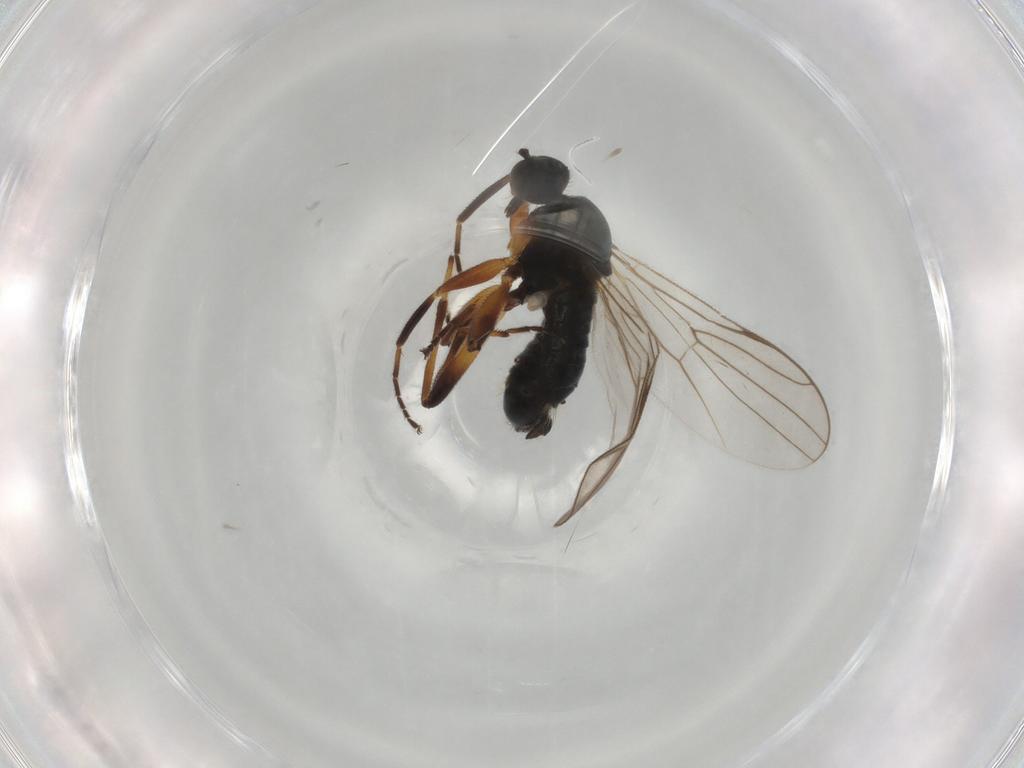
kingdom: Animalia
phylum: Arthropoda
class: Insecta
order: Diptera
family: Hybotidae
